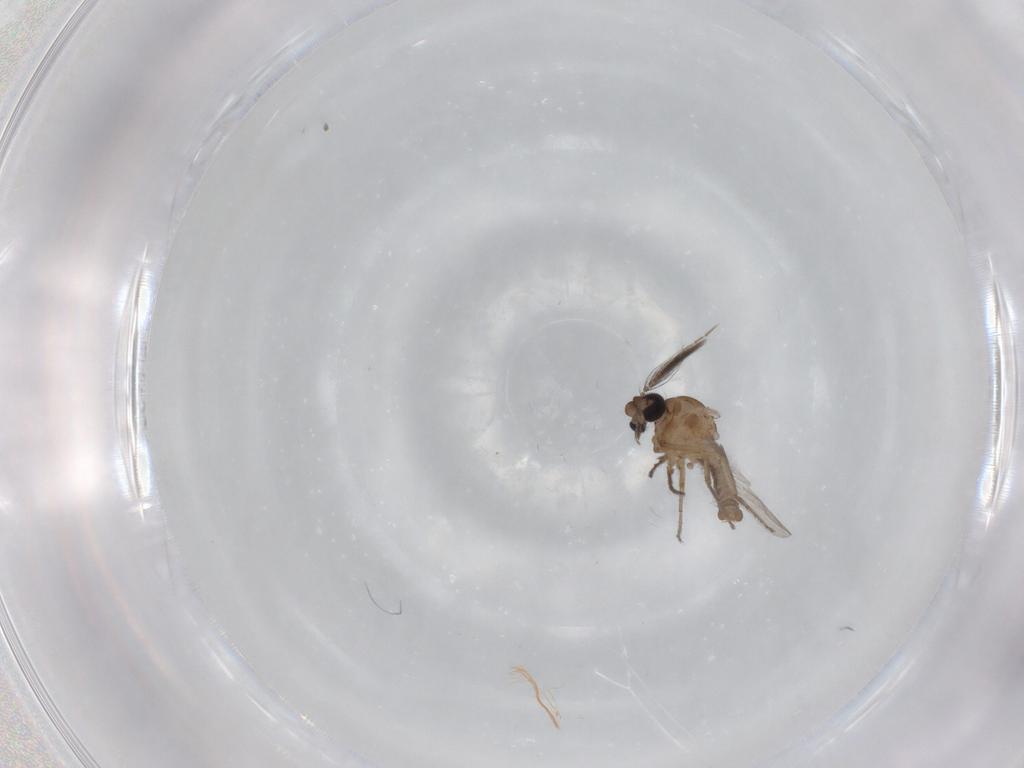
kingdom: Animalia
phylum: Arthropoda
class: Insecta
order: Diptera
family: Ceratopogonidae
